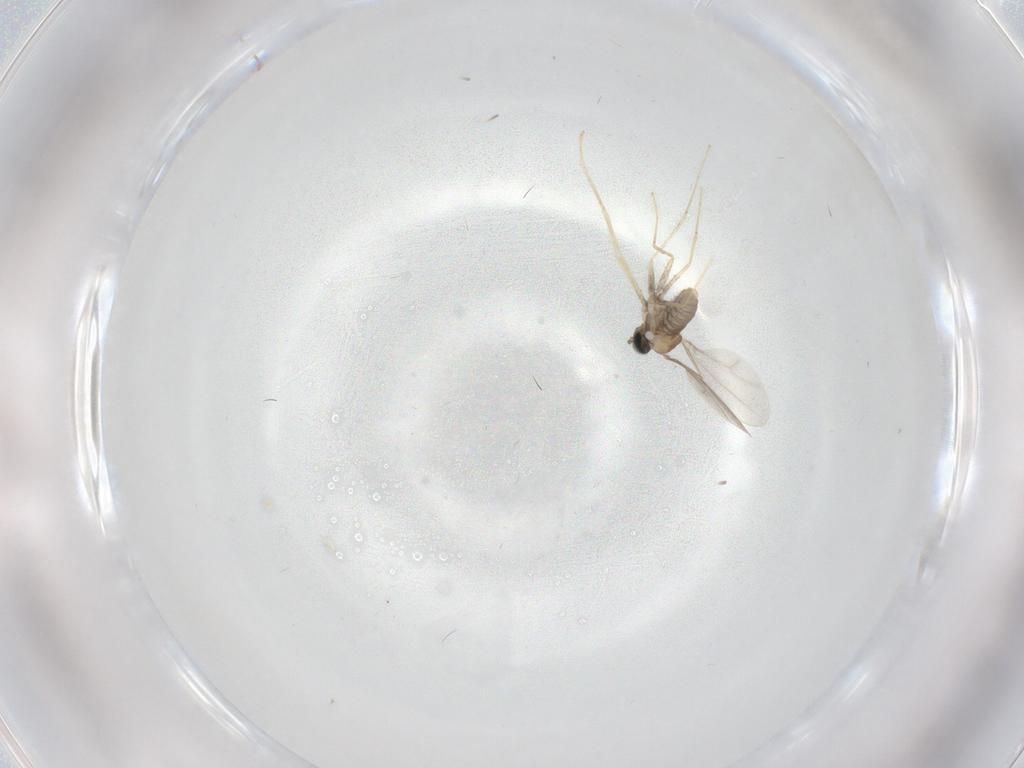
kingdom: Animalia
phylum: Arthropoda
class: Insecta
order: Diptera
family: Cecidomyiidae
